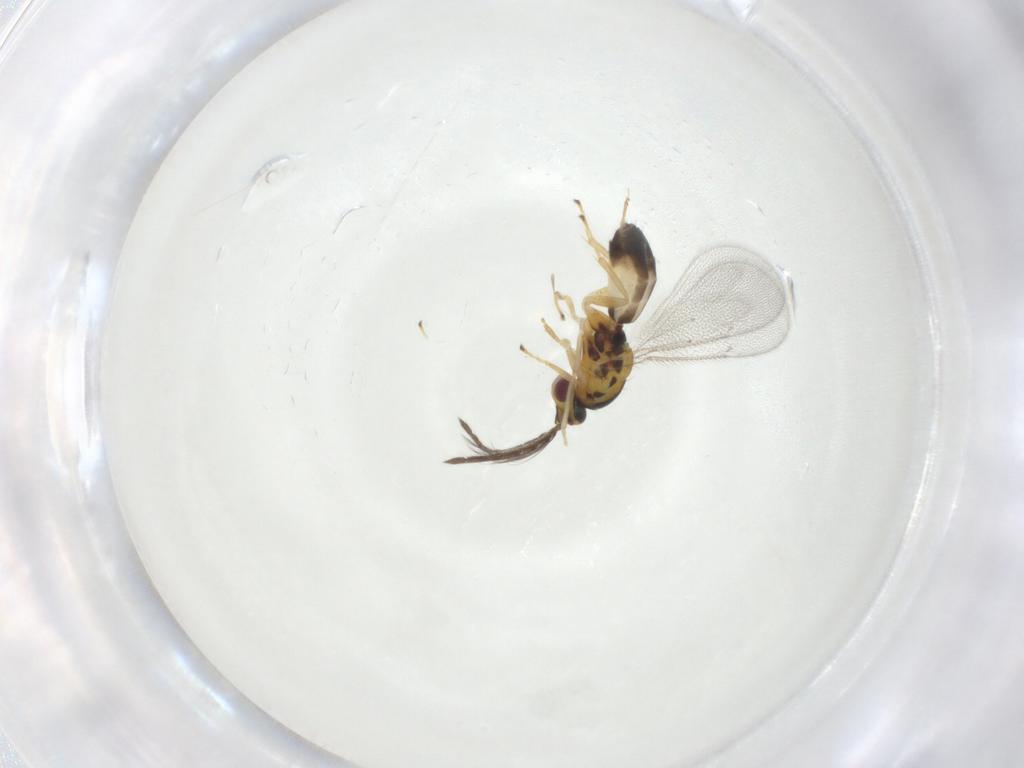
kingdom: Animalia
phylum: Arthropoda
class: Insecta
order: Hymenoptera
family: Eulophidae
